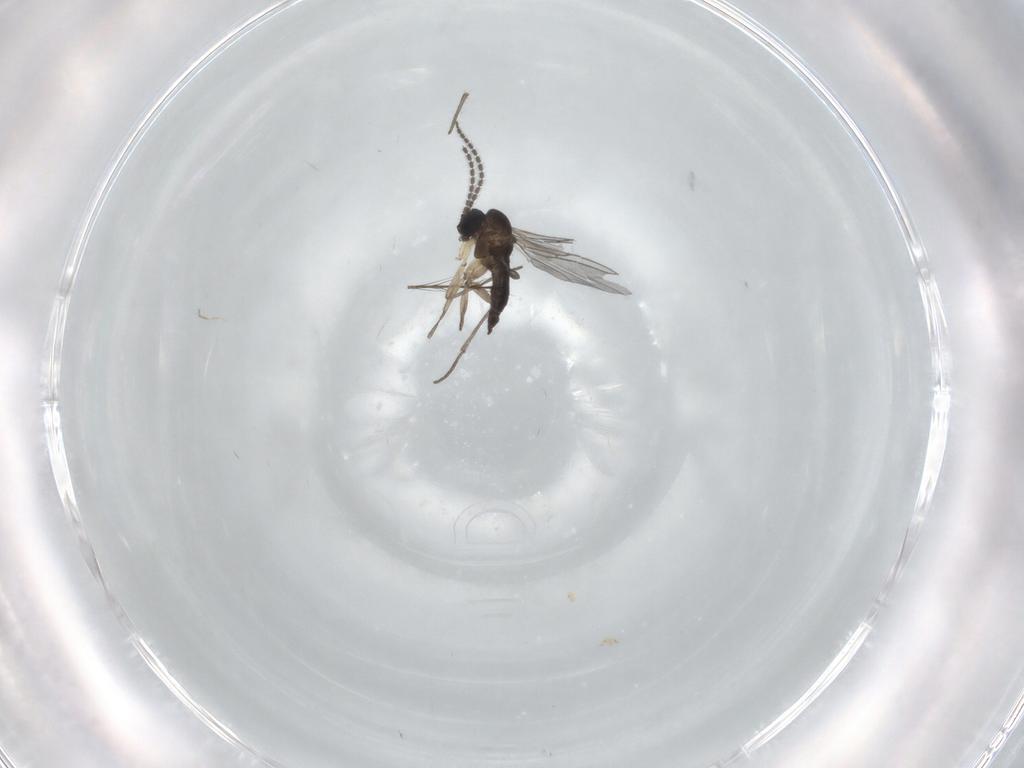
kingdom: Animalia
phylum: Arthropoda
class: Insecta
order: Diptera
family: Sciaridae
